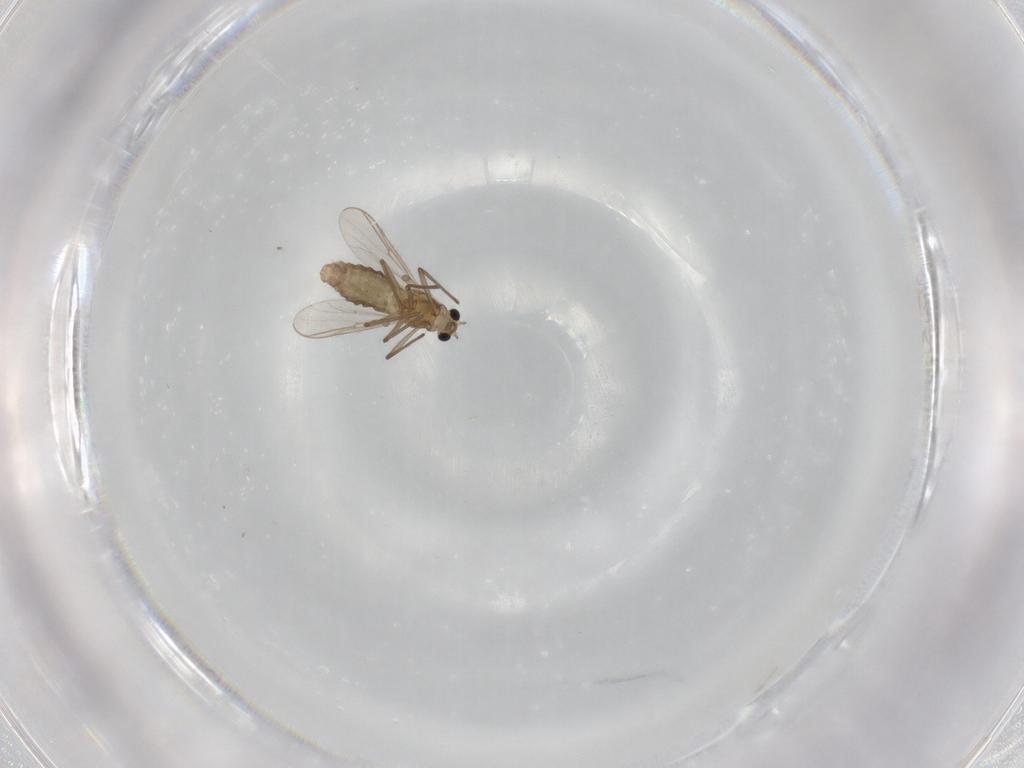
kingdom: Animalia
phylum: Arthropoda
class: Insecta
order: Diptera
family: Chironomidae
